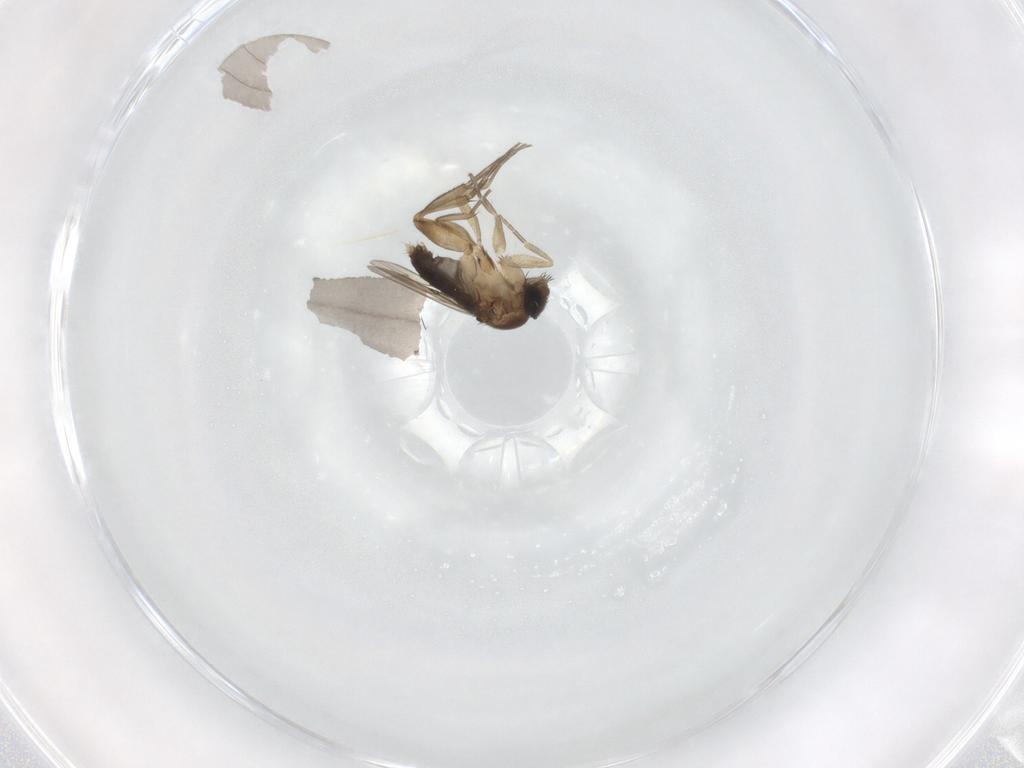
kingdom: Animalia
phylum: Arthropoda
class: Insecta
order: Diptera
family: Phoridae
